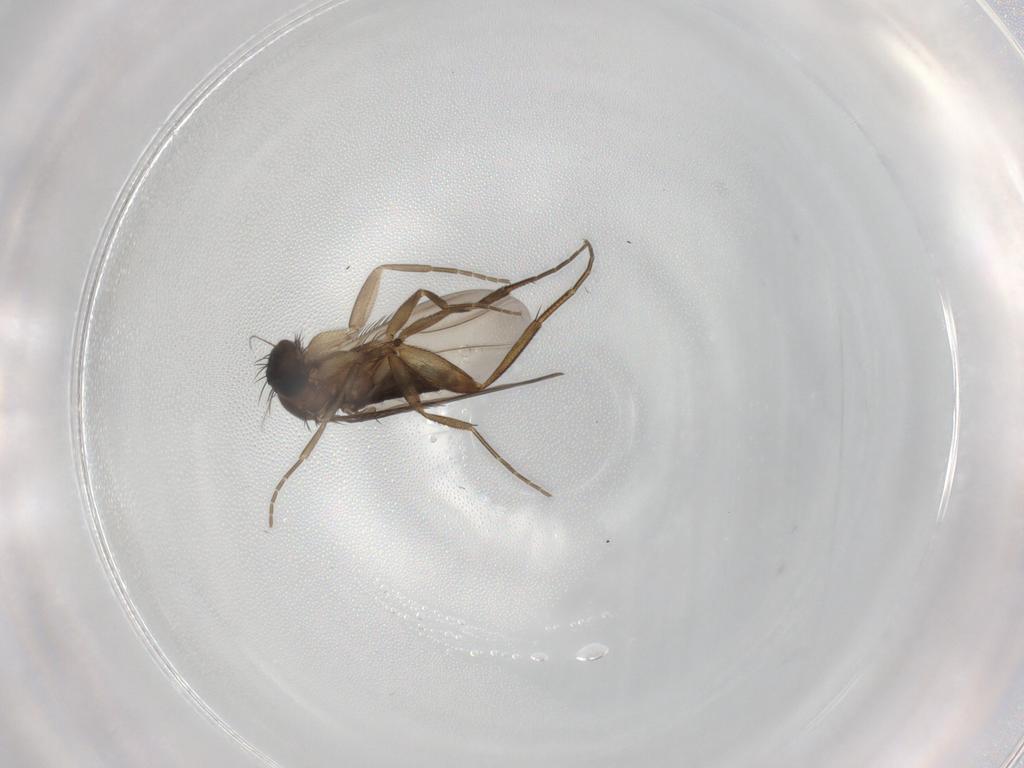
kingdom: Animalia
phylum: Arthropoda
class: Insecta
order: Diptera
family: Phoridae
